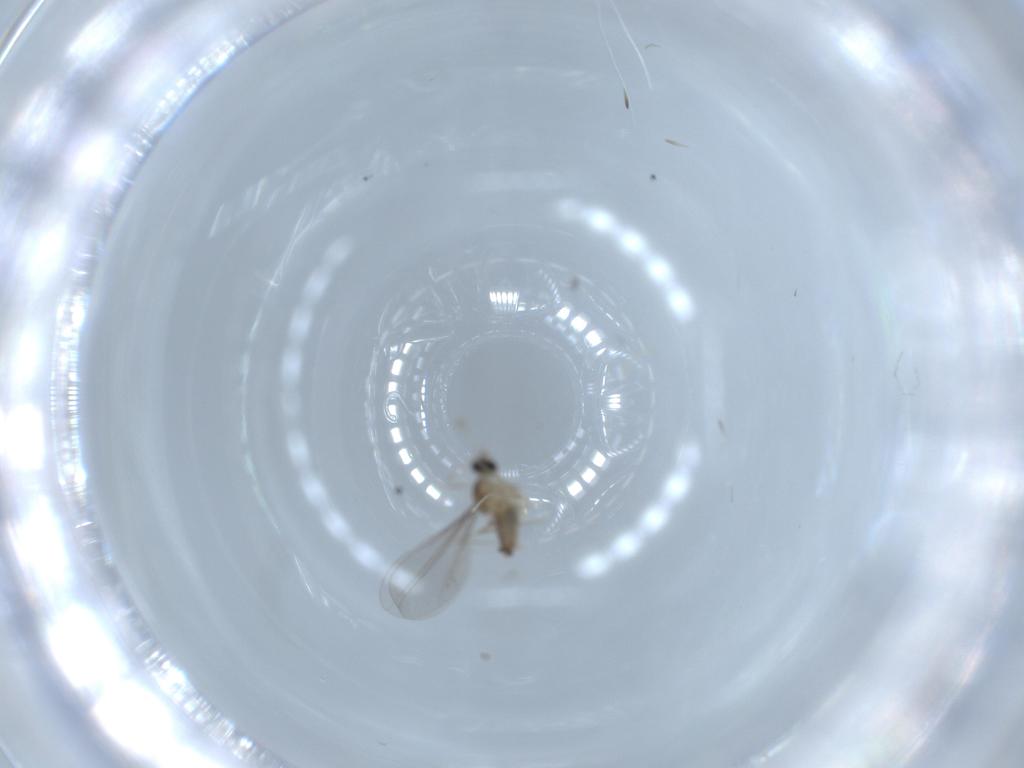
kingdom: Animalia
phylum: Arthropoda
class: Insecta
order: Diptera
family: Cecidomyiidae
